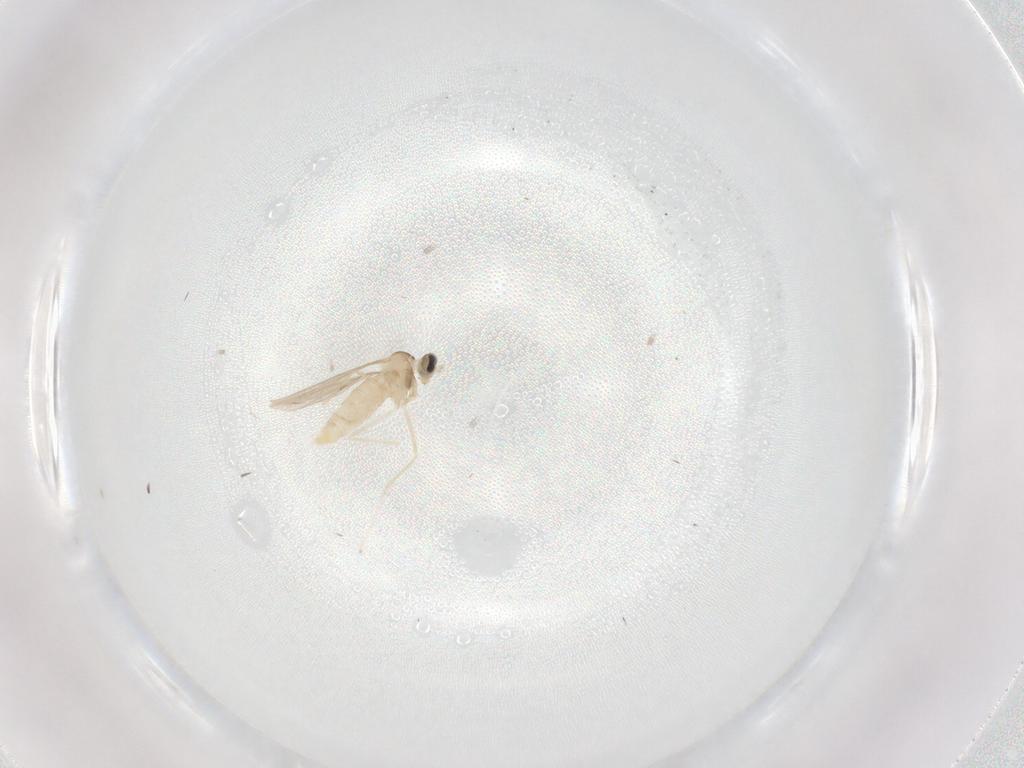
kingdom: Animalia
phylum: Arthropoda
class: Insecta
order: Diptera
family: Cecidomyiidae
